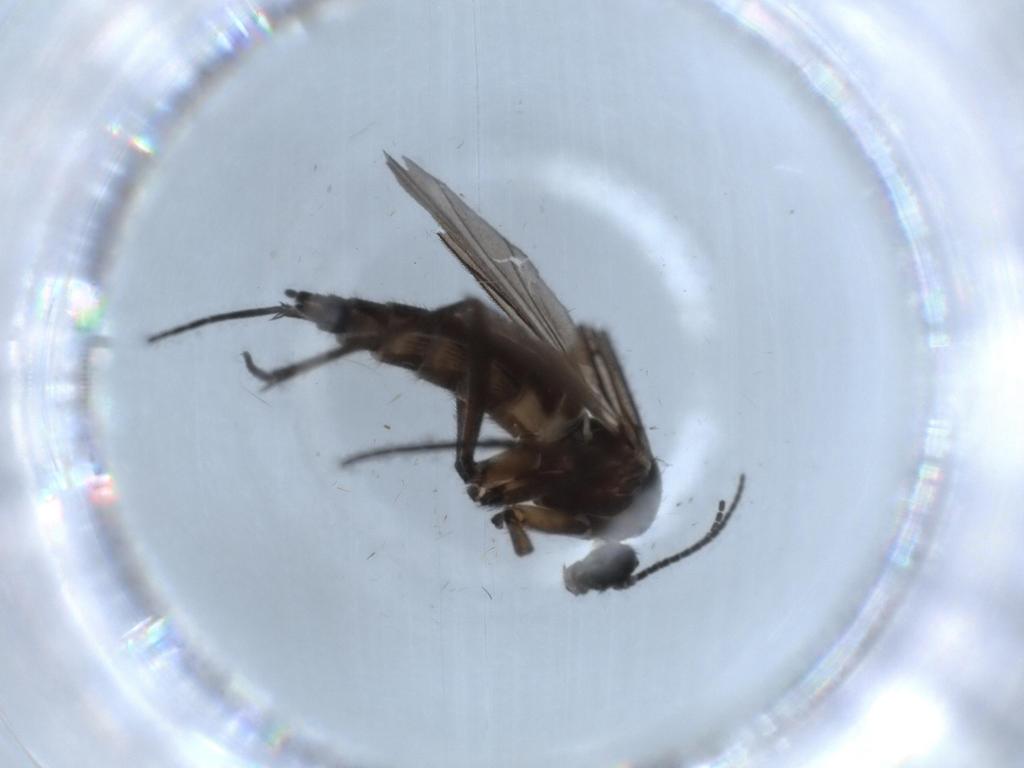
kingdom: Animalia
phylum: Arthropoda
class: Insecta
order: Diptera
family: Sciaridae
